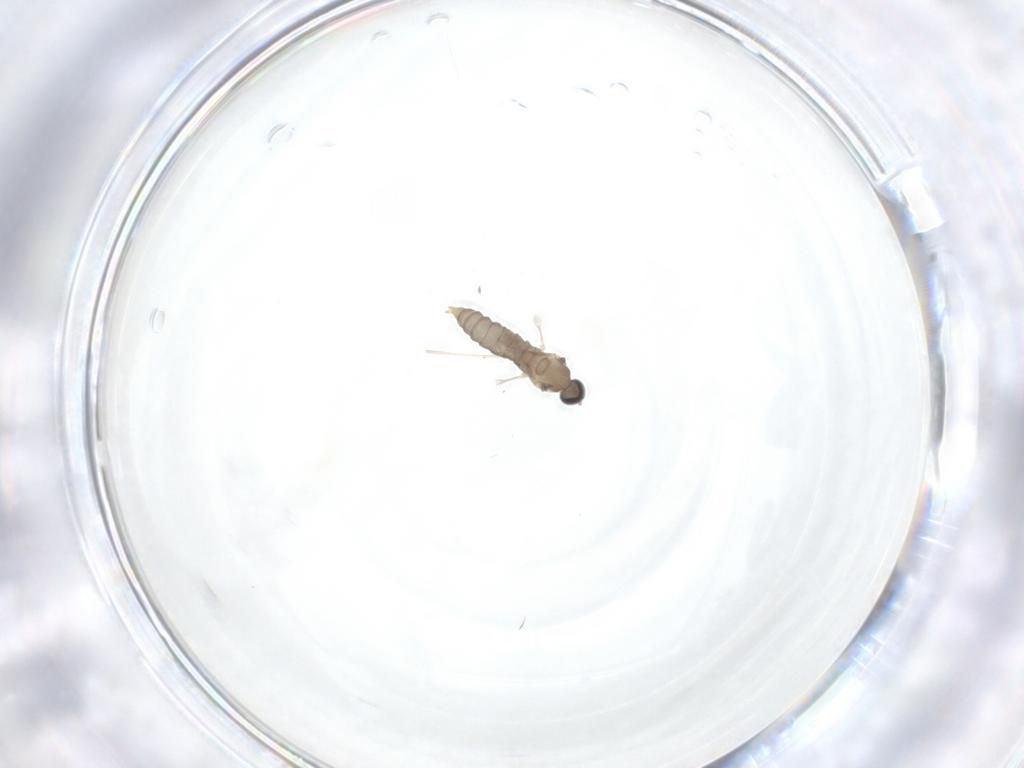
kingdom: Animalia
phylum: Arthropoda
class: Insecta
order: Diptera
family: Cecidomyiidae
